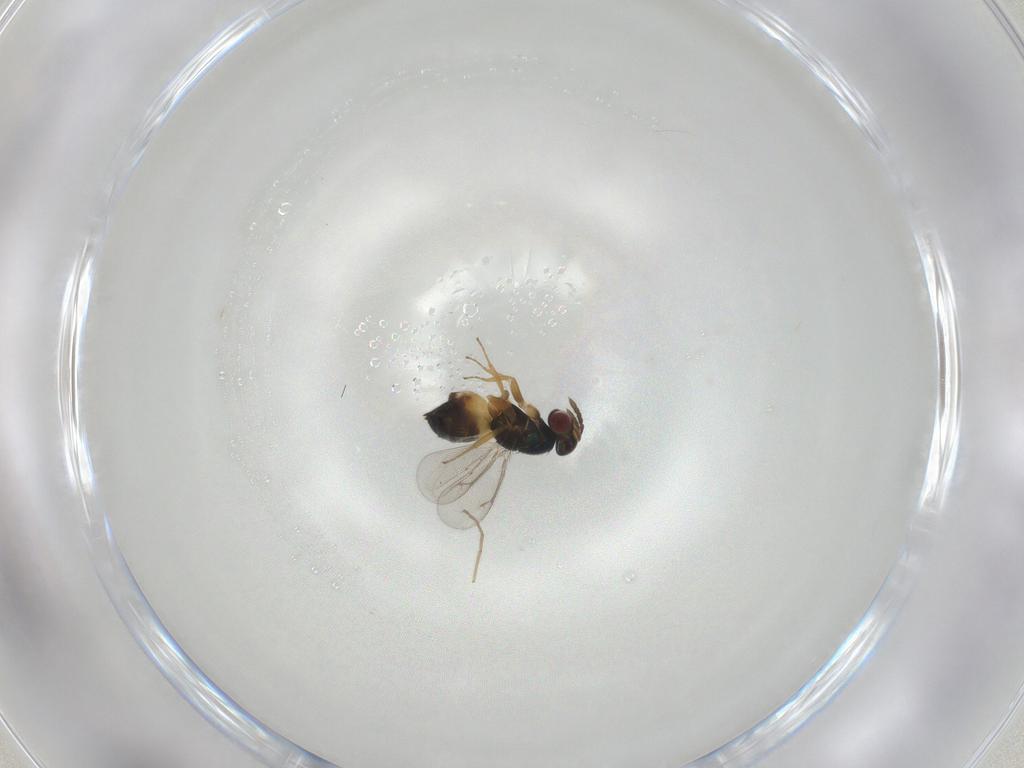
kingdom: Animalia
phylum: Arthropoda
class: Insecta
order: Hymenoptera
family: Eulophidae
